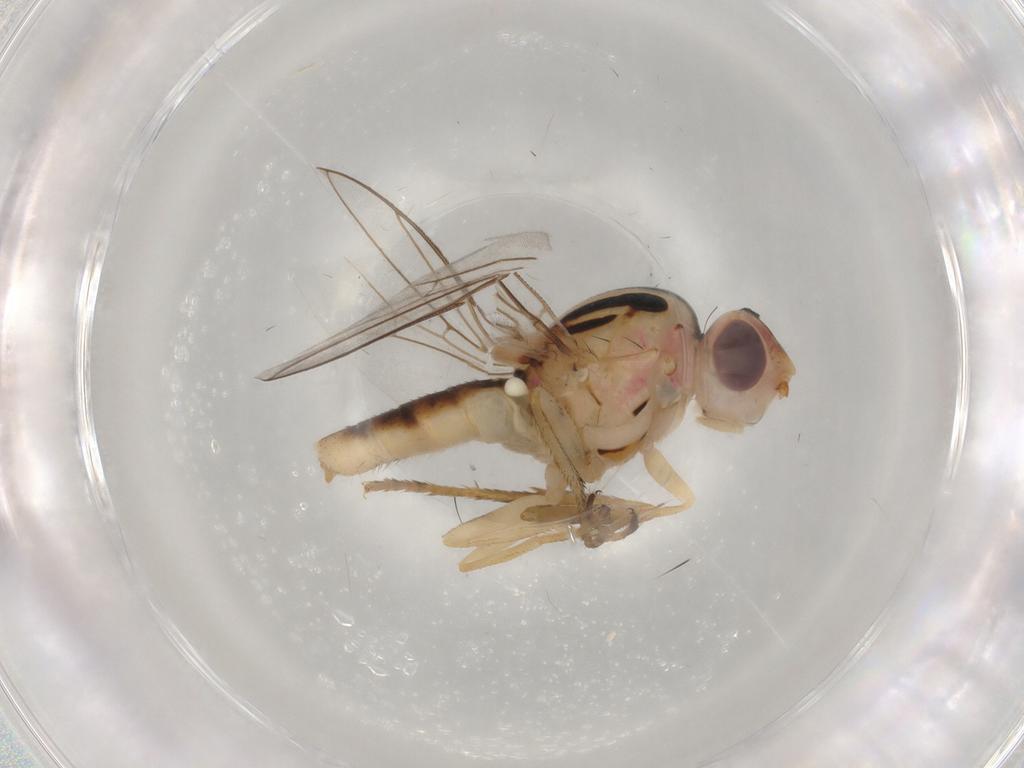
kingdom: Animalia
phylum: Arthropoda
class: Insecta
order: Diptera
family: Chloropidae
